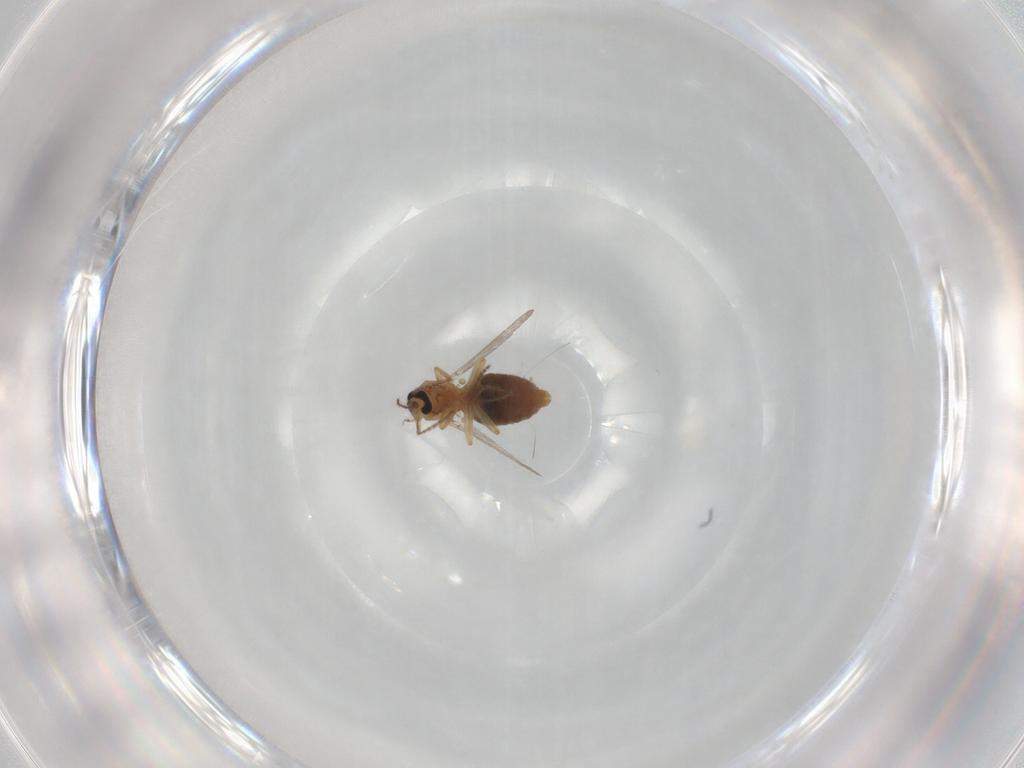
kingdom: Animalia
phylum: Arthropoda
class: Insecta
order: Diptera
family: Ceratopogonidae
